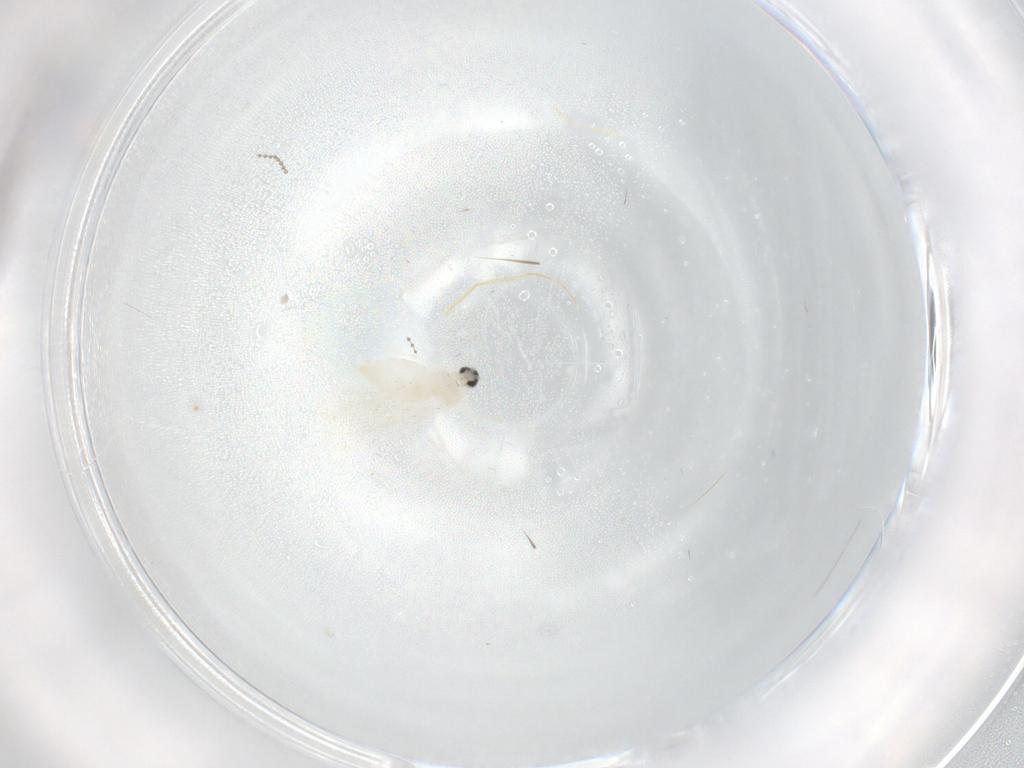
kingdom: Animalia
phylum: Arthropoda
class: Insecta
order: Diptera
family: Cecidomyiidae
